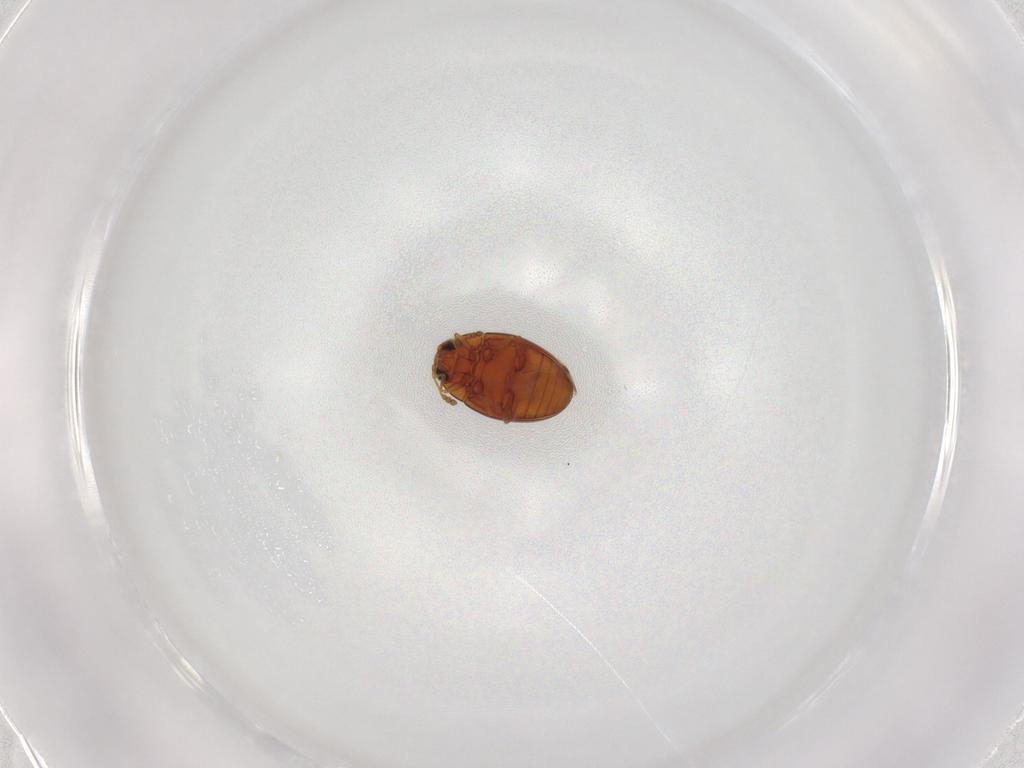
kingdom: Animalia
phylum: Arthropoda
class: Insecta
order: Coleoptera
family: Cryptophagidae
